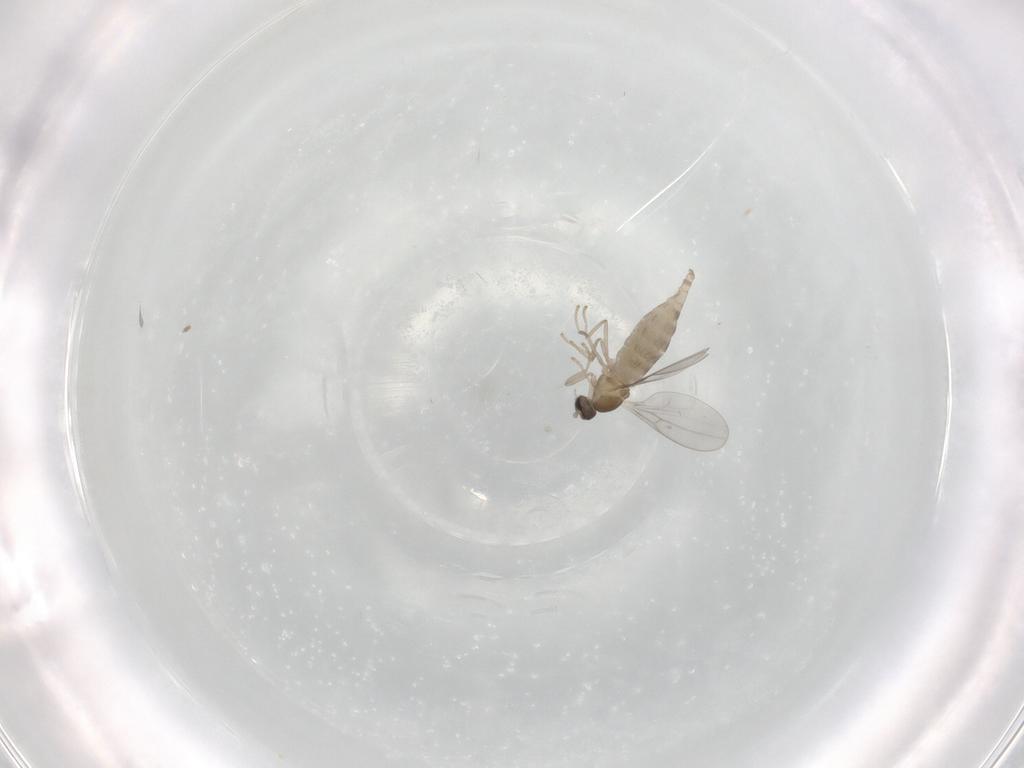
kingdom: Animalia
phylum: Arthropoda
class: Insecta
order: Diptera
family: Cecidomyiidae
